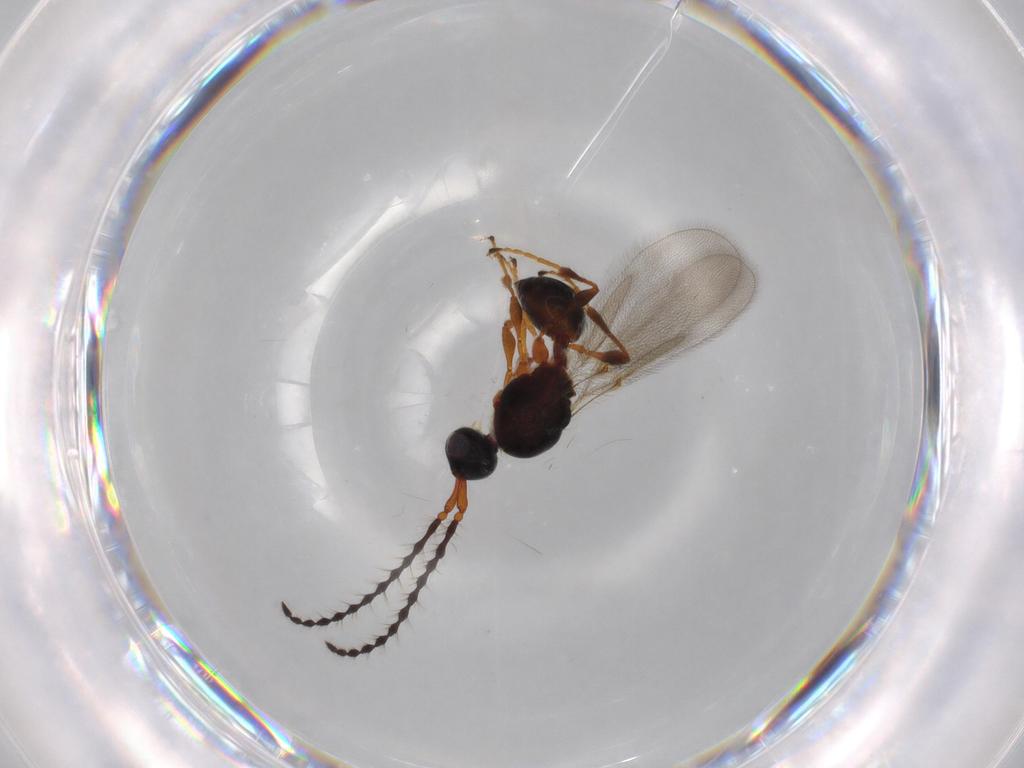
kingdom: Animalia
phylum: Arthropoda
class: Insecta
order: Hymenoptera
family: Diapriidae
